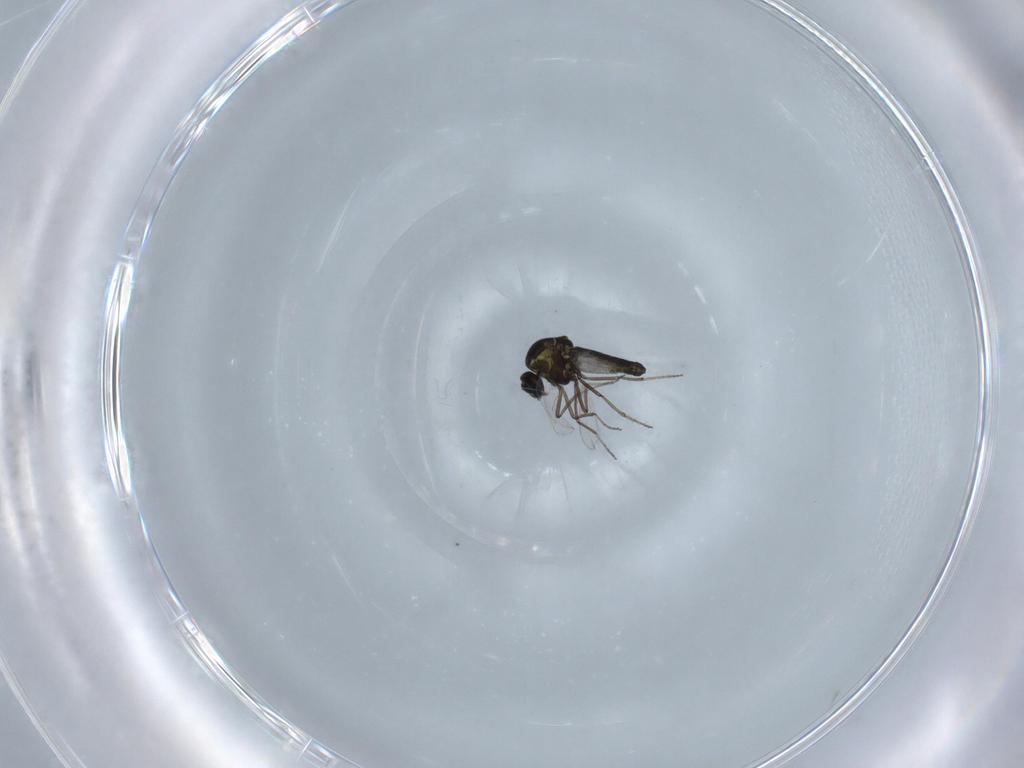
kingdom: Animalia
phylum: Arthropoda
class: Insecta
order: Diptera
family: Ceratopogonidae
